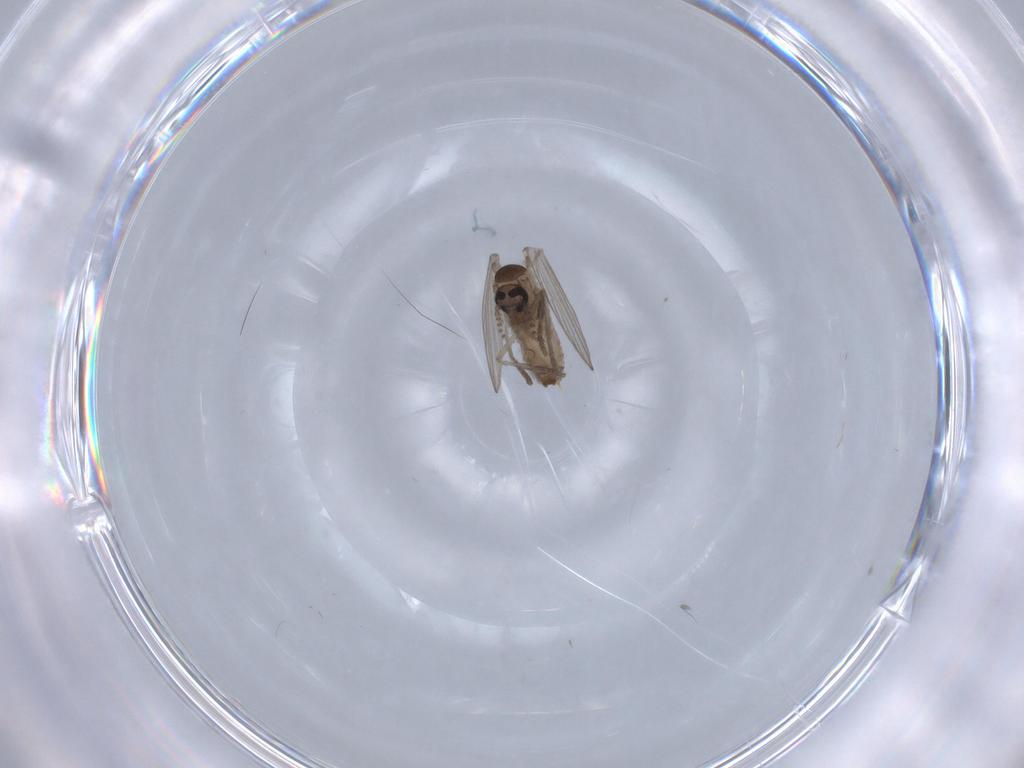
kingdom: Animalia
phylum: Arthropoda
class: Insecta
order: Diptera
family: Psychodidae
